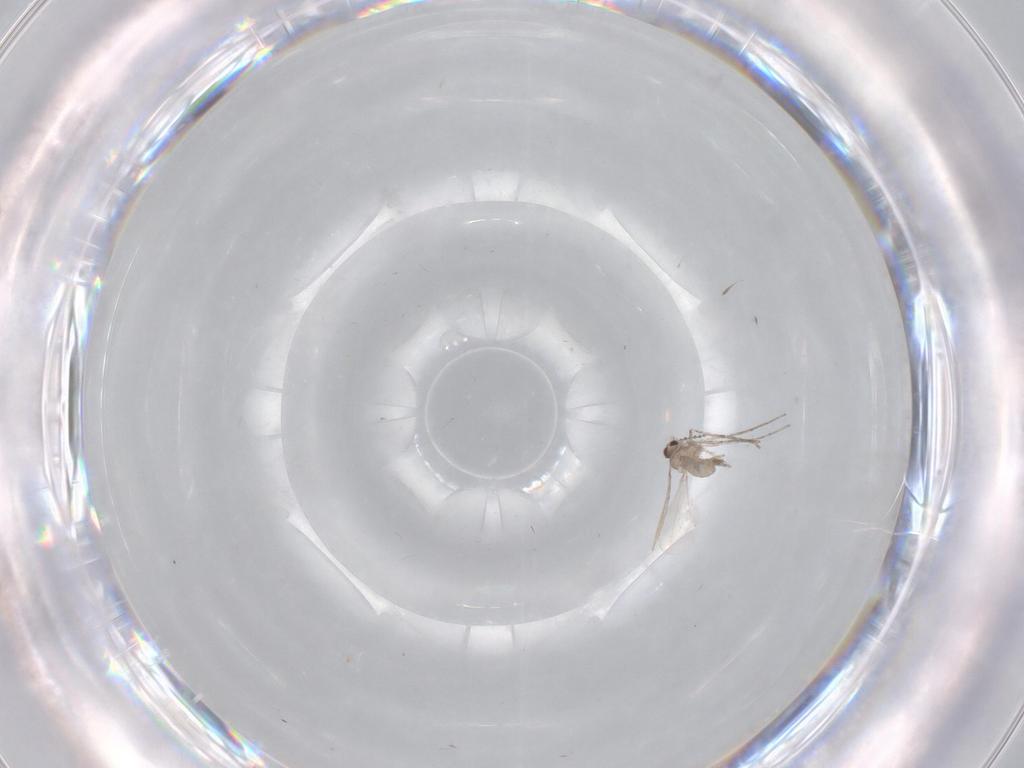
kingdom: Animalia
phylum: Arthropoda
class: Insecta
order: Diptera
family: Cecidomyiidae
